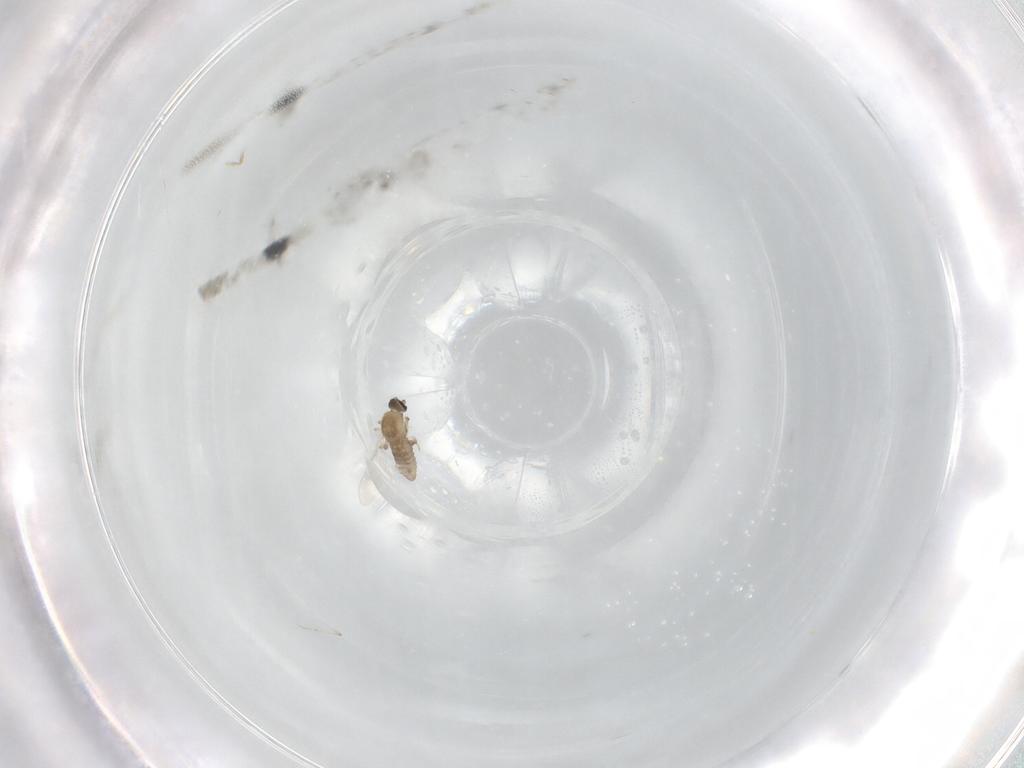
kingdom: Animalia
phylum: Arthropoda
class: Insecta
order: Diptera
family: Ceratopogonidae
